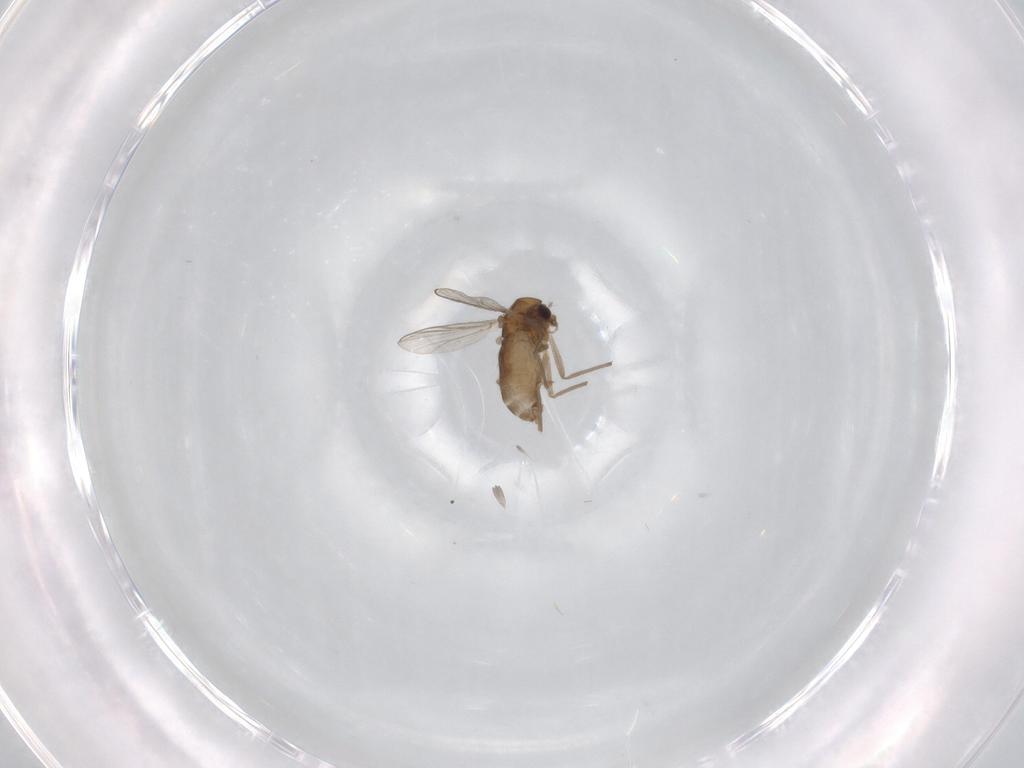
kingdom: Animalia
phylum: Arthropoda
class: Insecta
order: Diptera
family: Chironomidae
